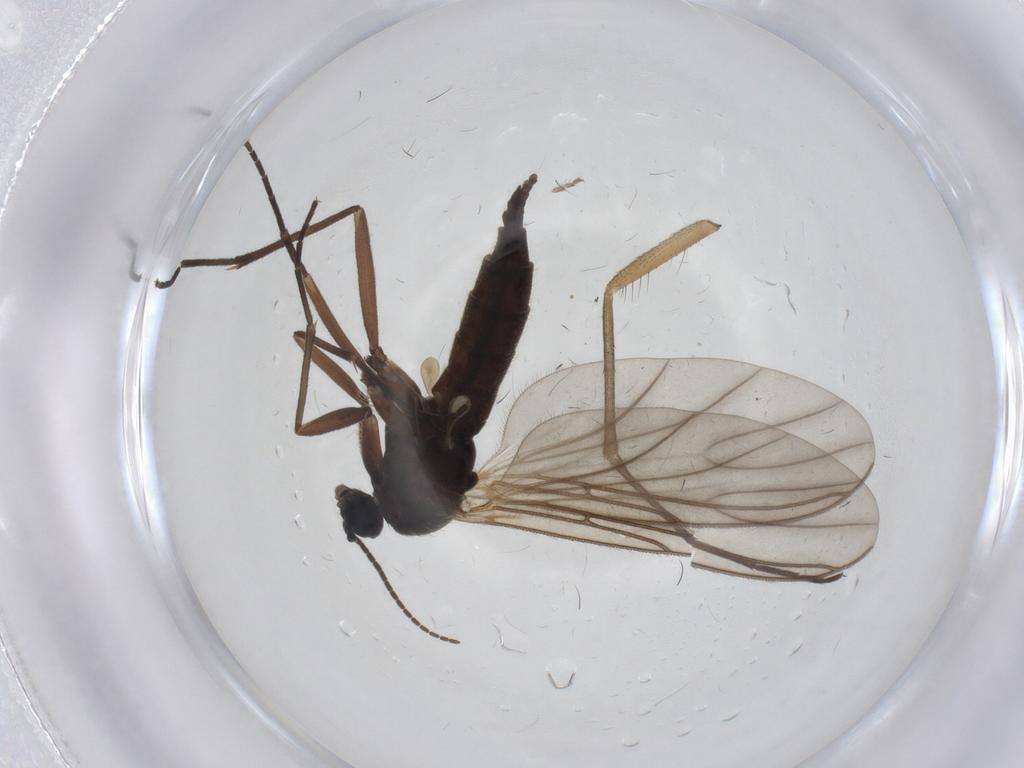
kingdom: Animalia
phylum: Arthropoda
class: Insecta
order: Diptera
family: Sciaridae
